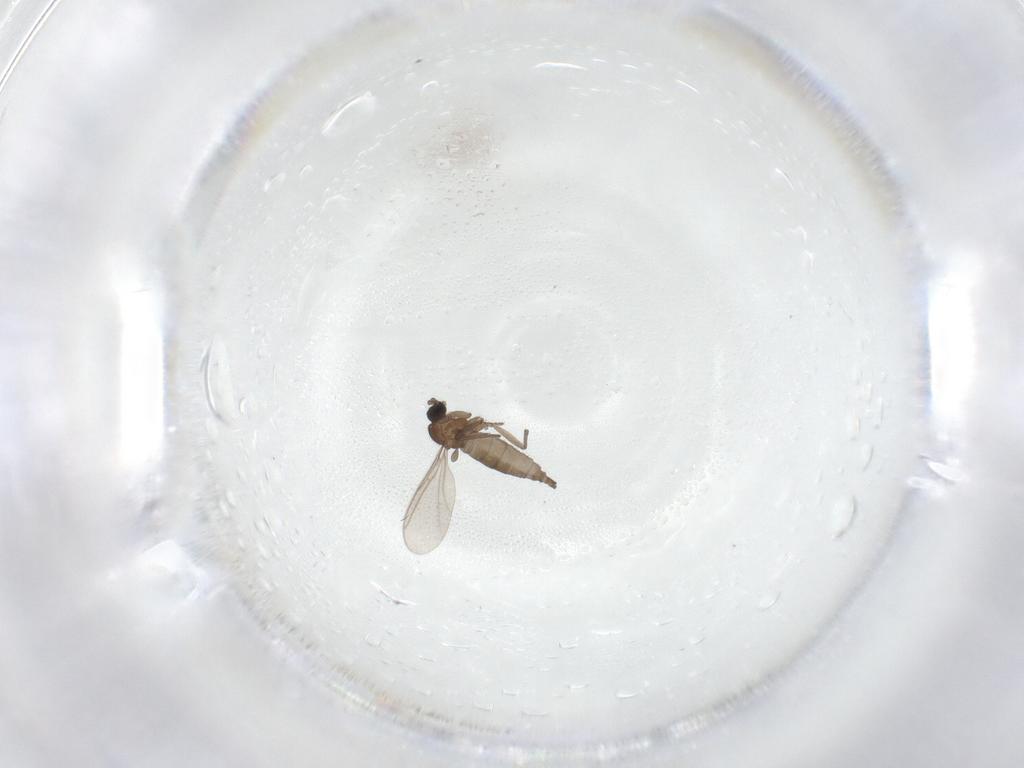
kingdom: Animalia
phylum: Arthropoda
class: Insecta
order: Diptera
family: Sciaridae
